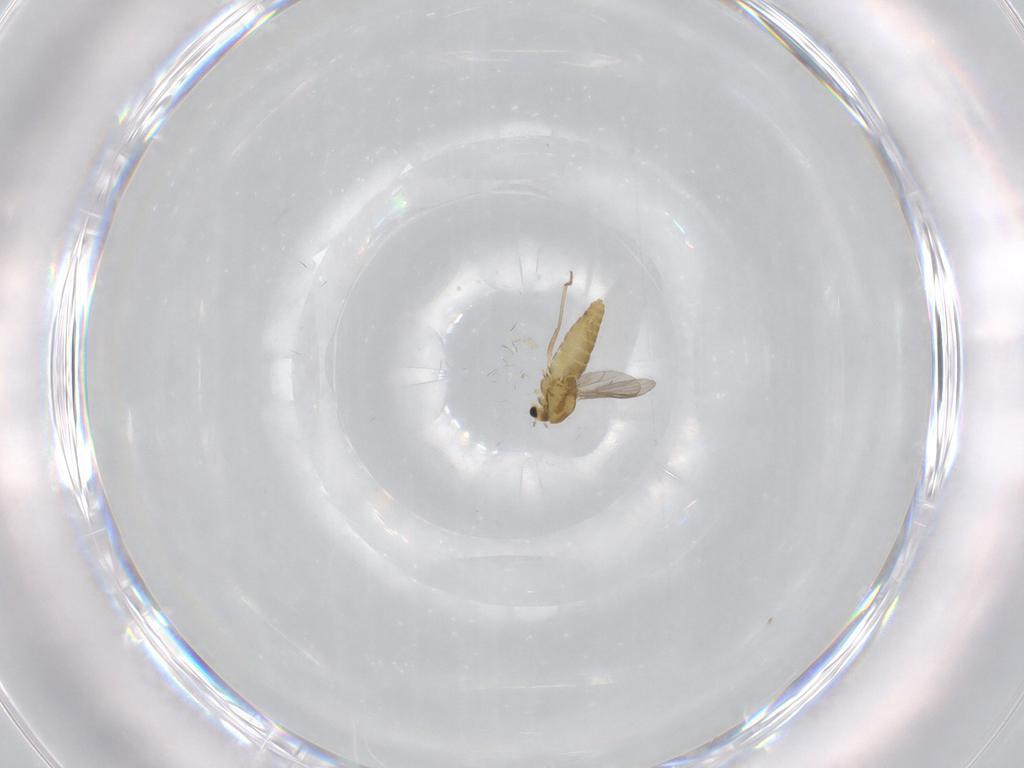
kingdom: Animalia
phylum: Arthropoda
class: Insecta
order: Diptera
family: Chironomidae
